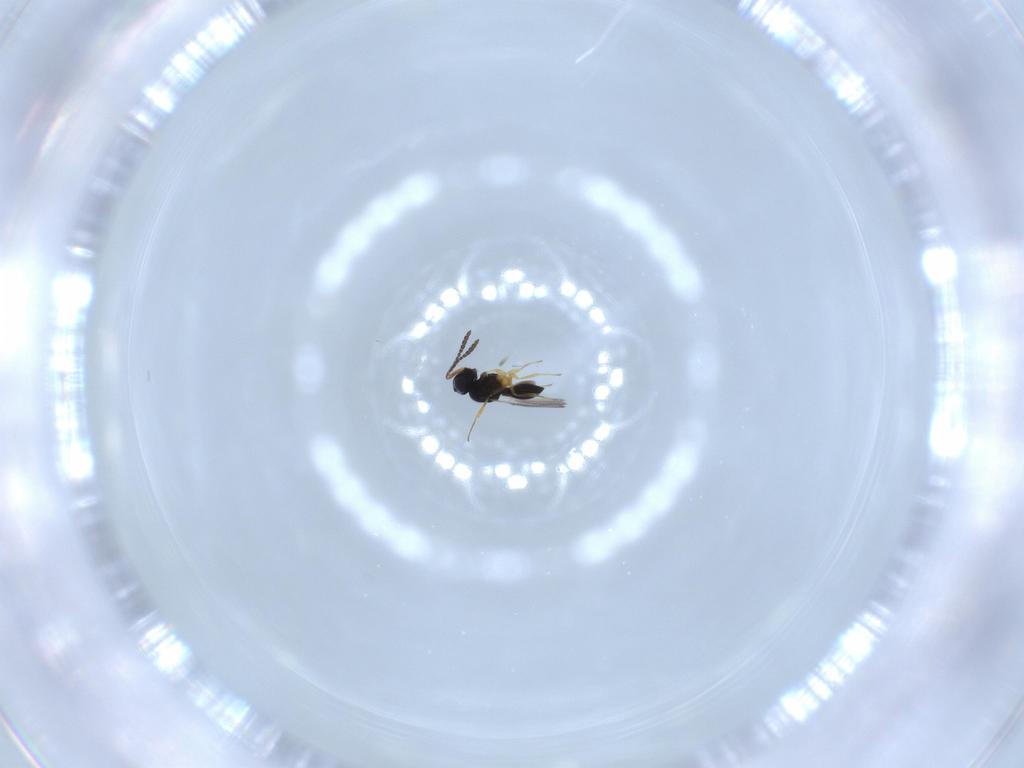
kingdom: Animalia
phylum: Arthropoda
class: Insecta
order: Hymenoptera
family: Scelionidae
